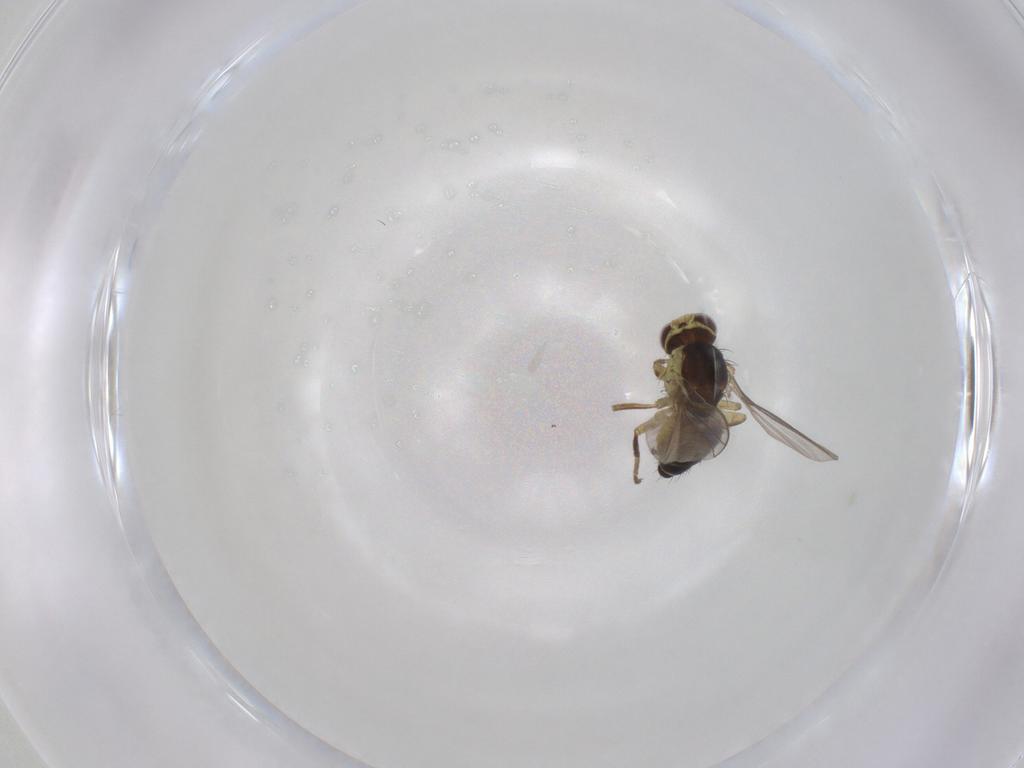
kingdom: Animalia
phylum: Arthropoda
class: Insecta
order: Diptera
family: Agromyzidae
